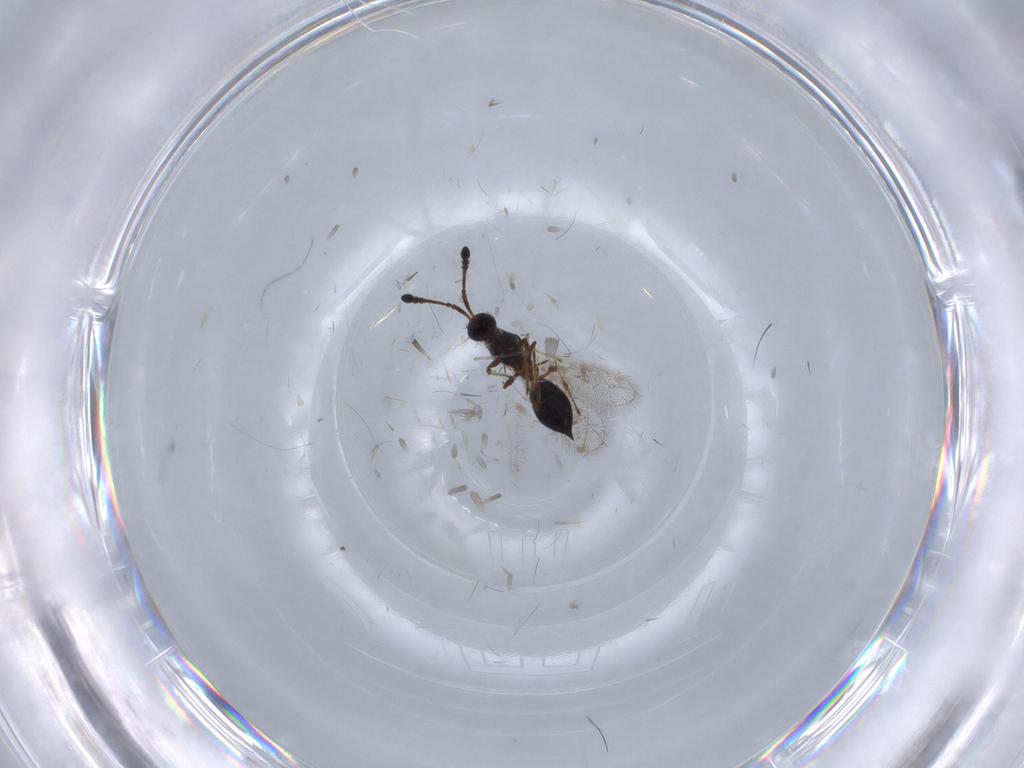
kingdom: Animalia
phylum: Arthropoda
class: Insecta
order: Hymenoptera
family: Diapriidae
